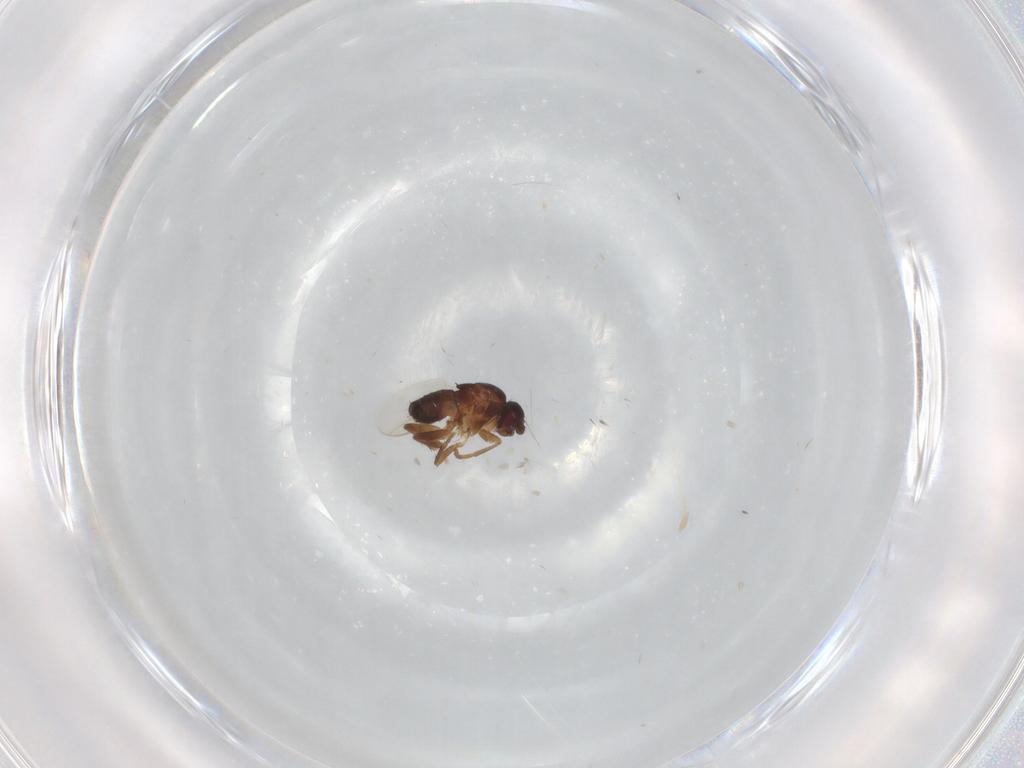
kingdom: Animalia
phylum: Arthropoda
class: Insecta
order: Diptera
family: Sphaeroceridae
